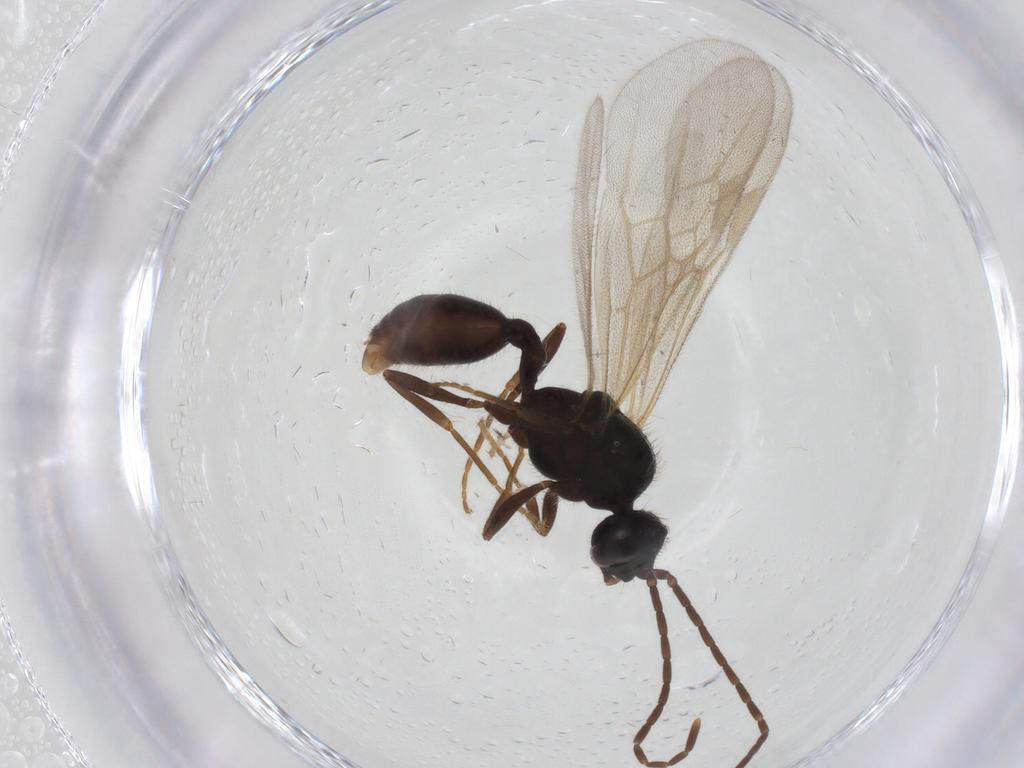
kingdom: Animalia
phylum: Arthropoda
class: Insecta
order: Hymenoptera
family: Formicidae
